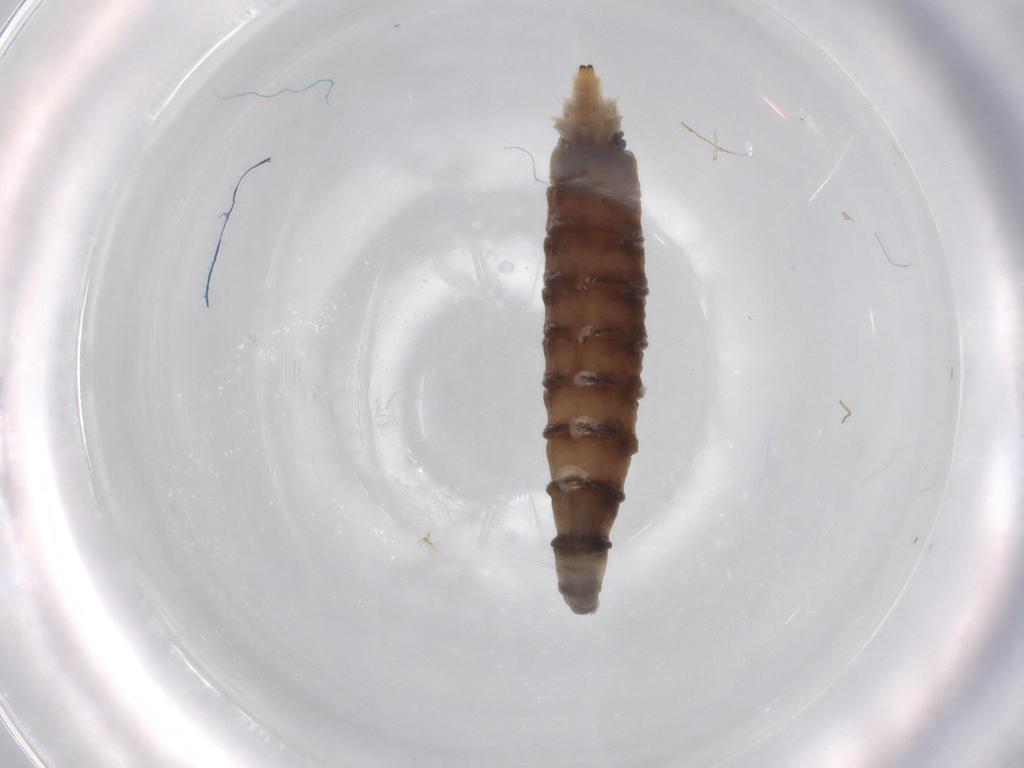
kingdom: Animalia
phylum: Arthropoda
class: Insecta
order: Diptera
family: Drosophilidae
